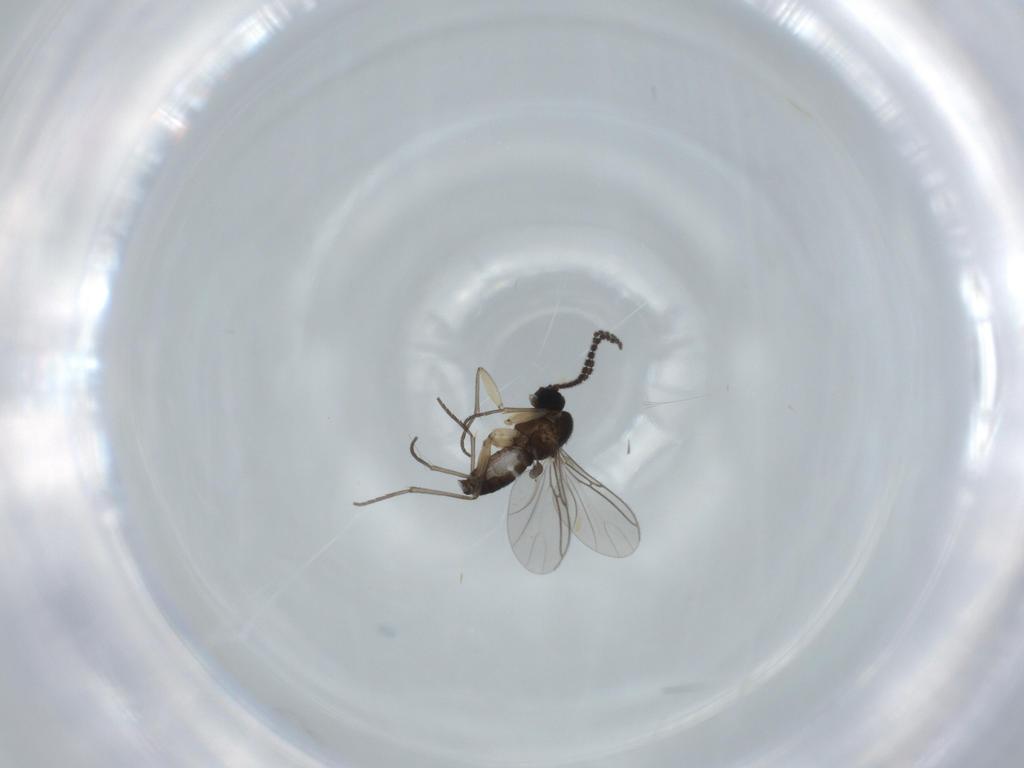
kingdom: Animalia
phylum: Arthropoda
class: Insecta
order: Diptera
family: Sciaridae
